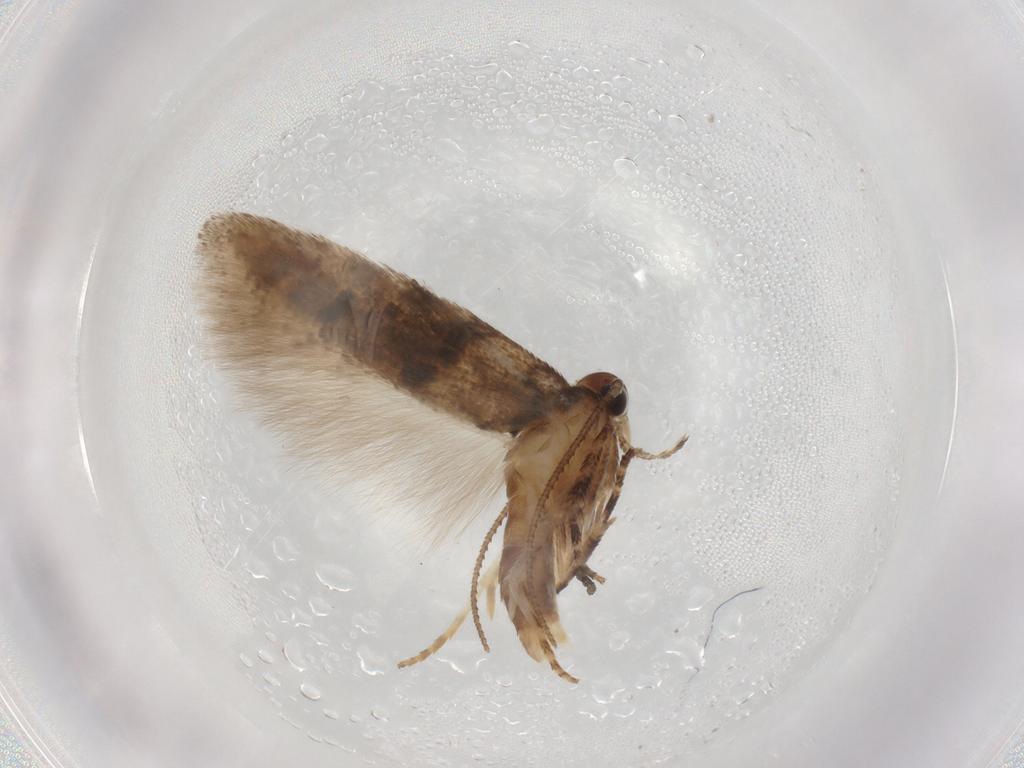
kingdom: Animalia
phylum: Arthropoda
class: Insecta
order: Lepidoptera
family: Gelechiidae
